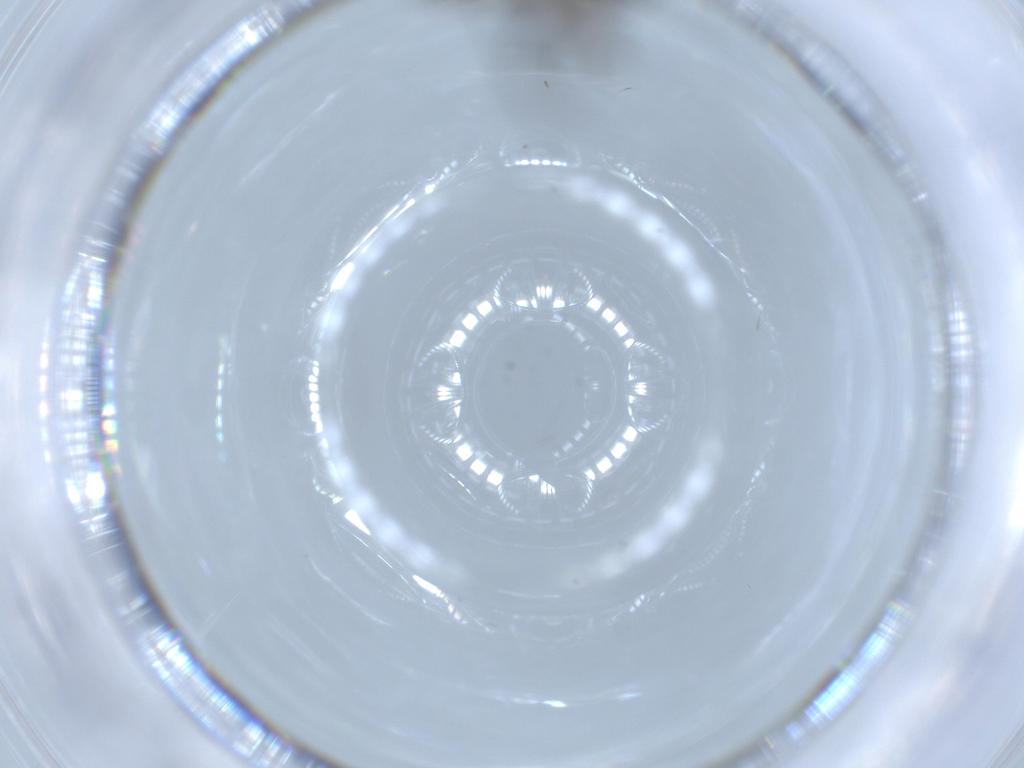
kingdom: Animalia
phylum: Arthropoda
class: Insecta
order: Diptera
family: Sciaridae
